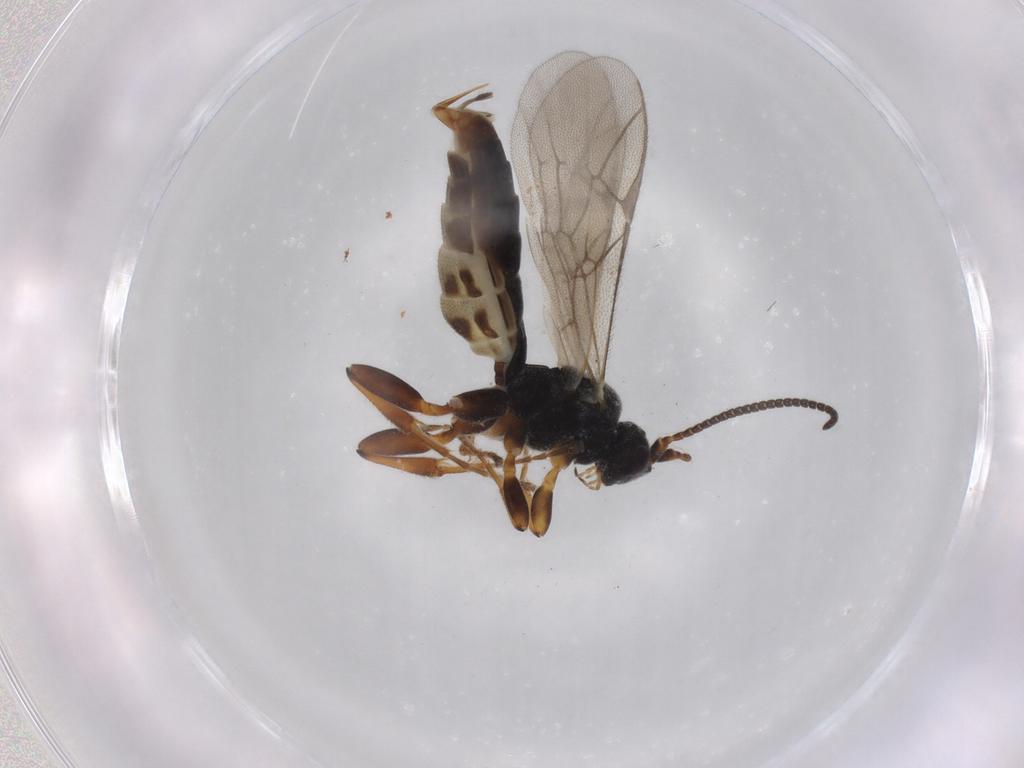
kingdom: Animalia
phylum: Arthropoda
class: Insecta
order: Hymenoptera
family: Ichneumonidae
